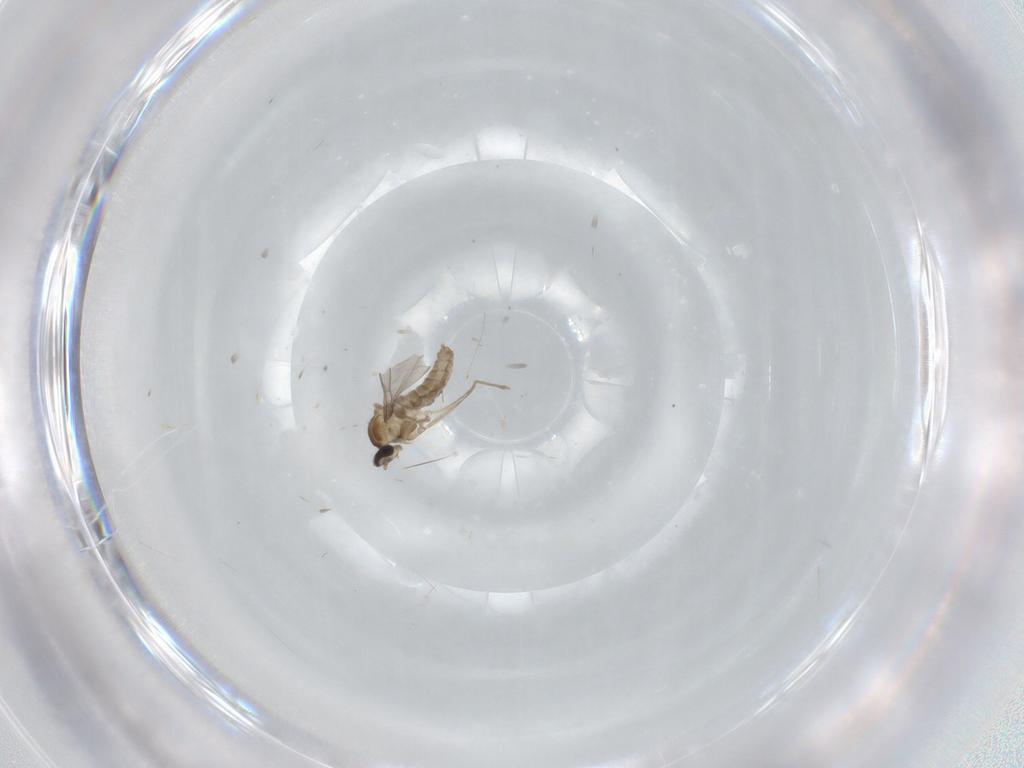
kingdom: Animalia
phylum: Arthropoda
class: Insecta
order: Diptera
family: Cecidomyiidae
